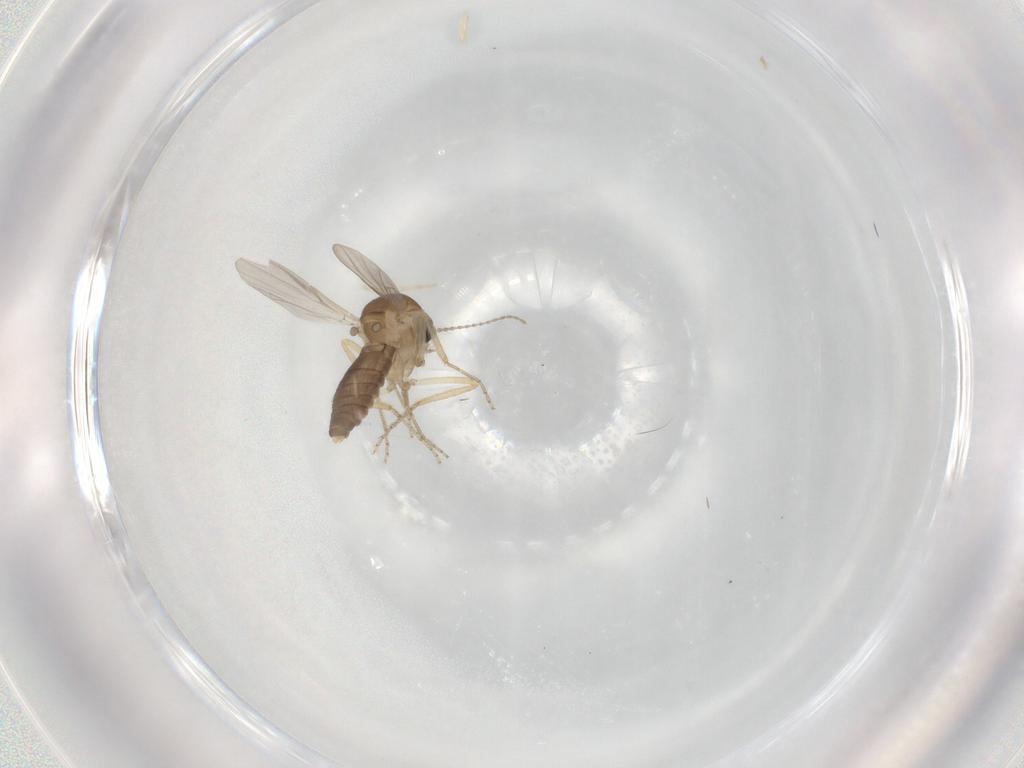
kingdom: Animalia
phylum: Arthropoda
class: Insecta
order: Diptera
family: Ceratopogonidae
